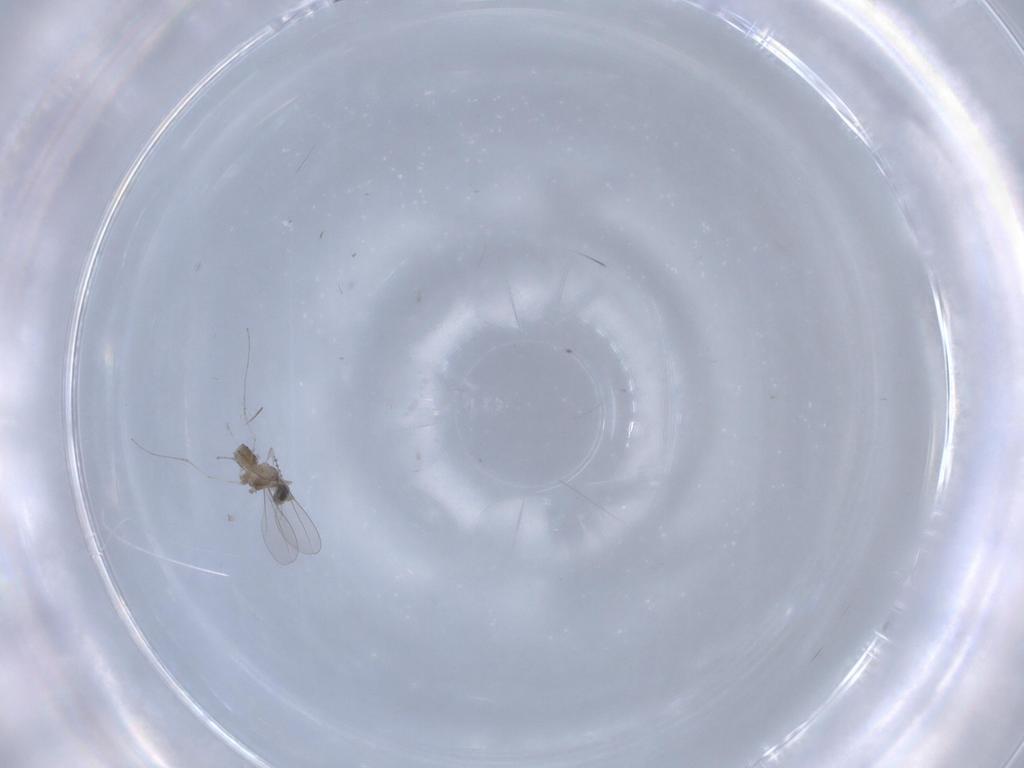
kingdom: Animalia
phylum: Arthropoda
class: Insecta
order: Diptera
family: Cecidomyiidae
